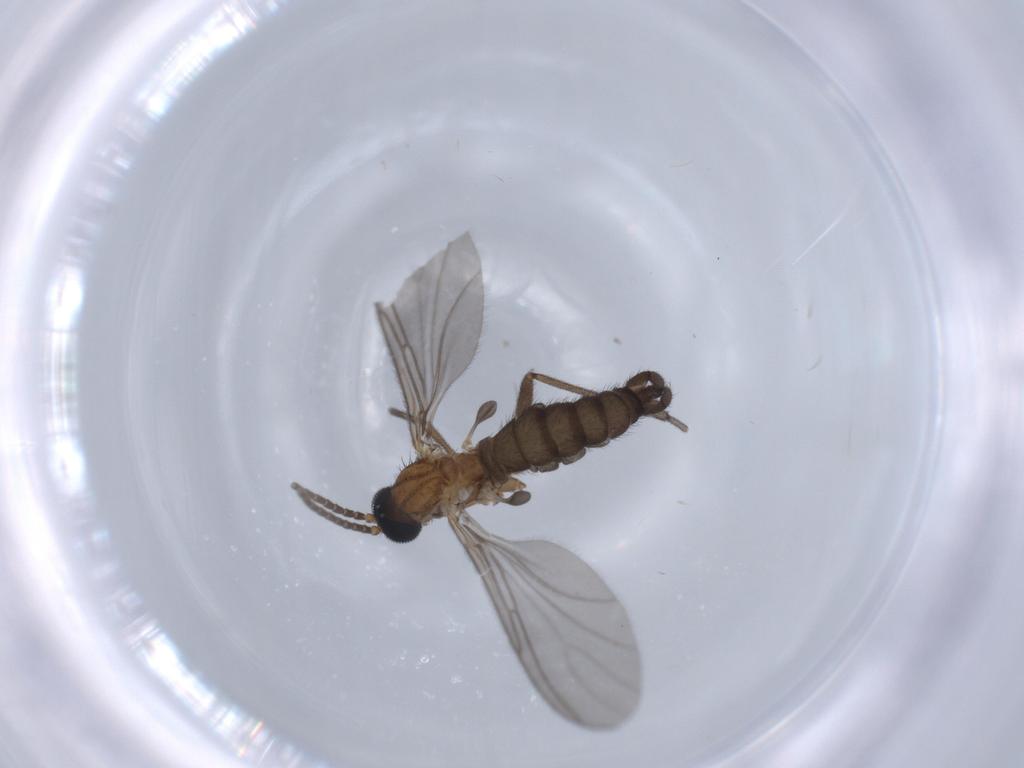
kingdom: Animalia
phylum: Arthropoda
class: Insecta
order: Diptera
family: Sciaridae
